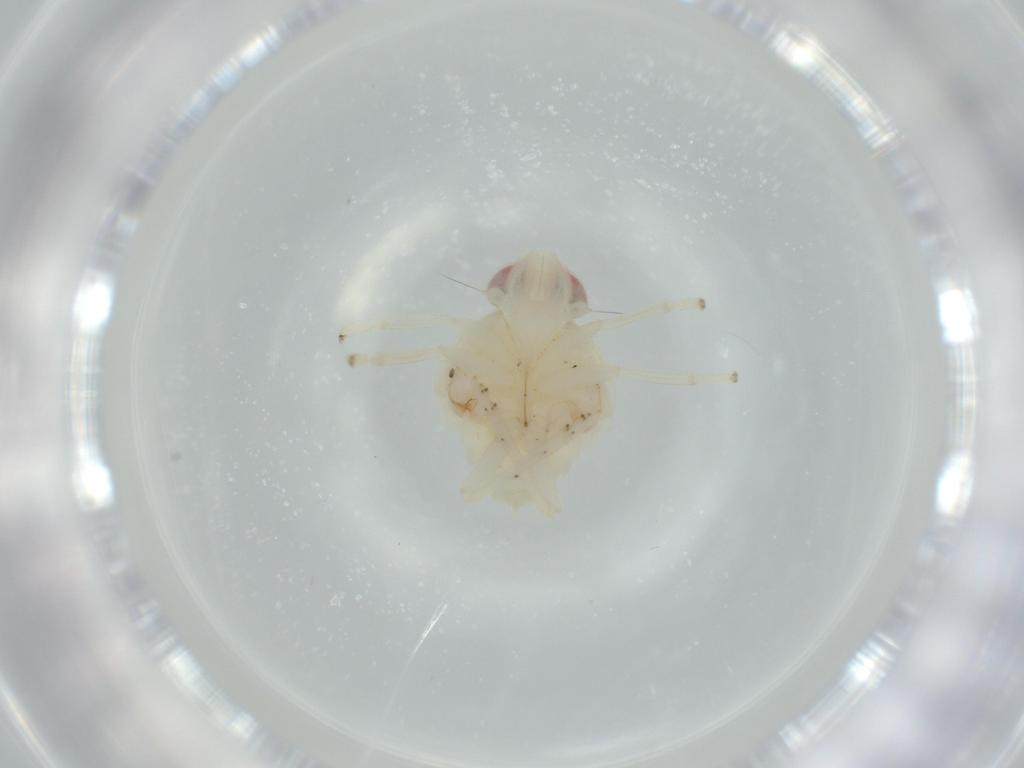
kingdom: Animalia
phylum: Arthropoda
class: Insecta
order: Hemiptera
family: Nogodinidae
